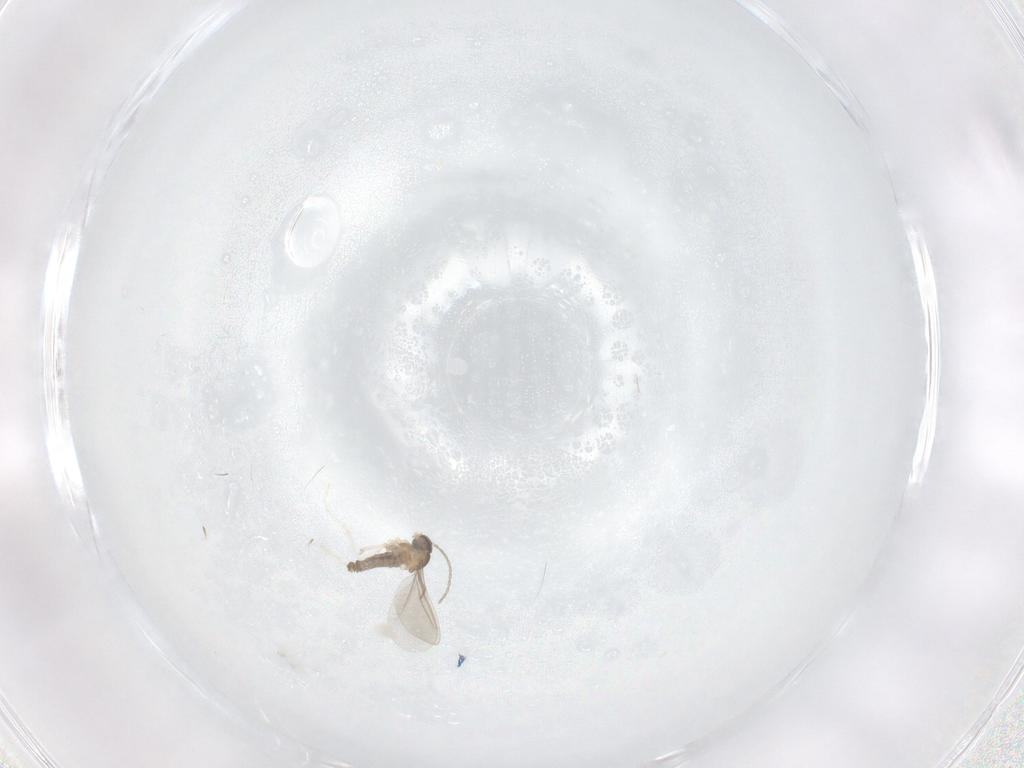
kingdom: Animalia
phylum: Arthropoda
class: Insecta
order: Diptera
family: Cecidomyiidae
